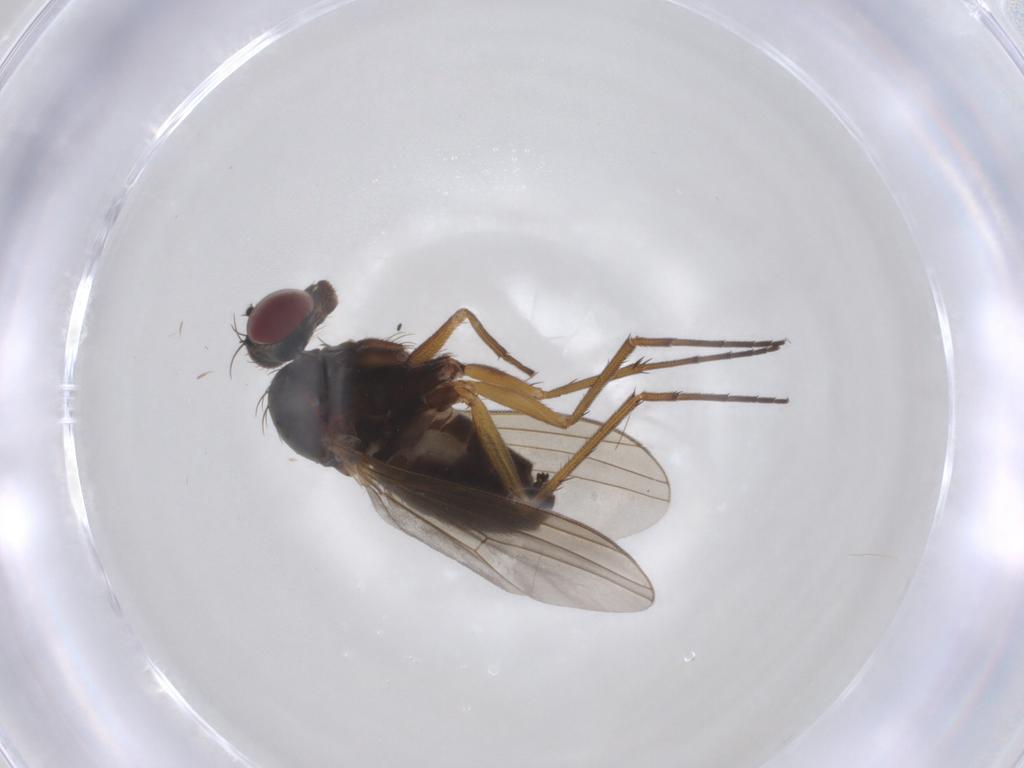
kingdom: Animalia
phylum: Arthropoda
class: Insecta
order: Diptera
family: Dolichopodidae
